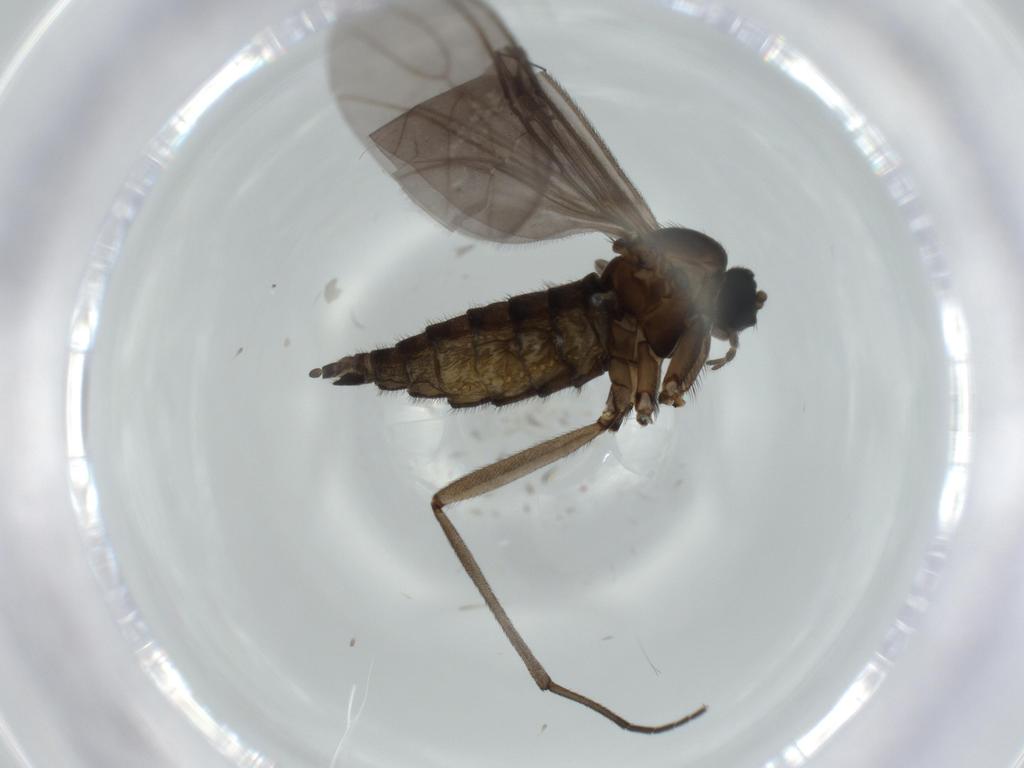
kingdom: Animalia
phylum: Arthropoda
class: Insecta
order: Diptera
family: Sciaridae
